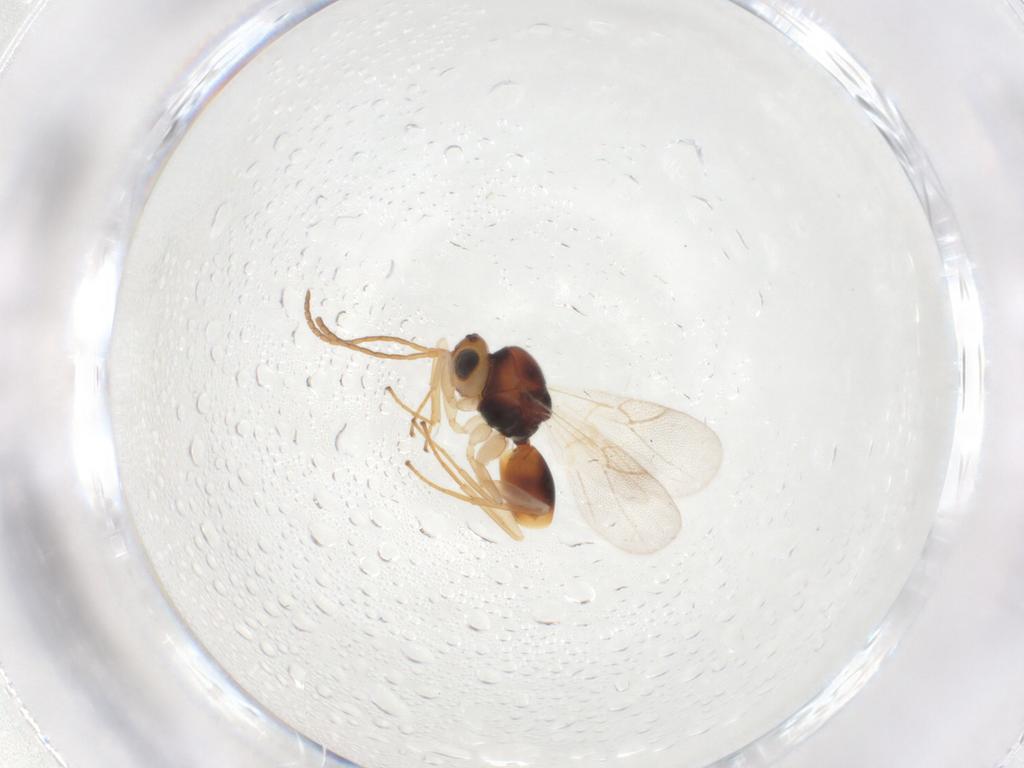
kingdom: Animalia
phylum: Arthropoda
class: Insecta
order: Hymenoptera
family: Cynipidae
